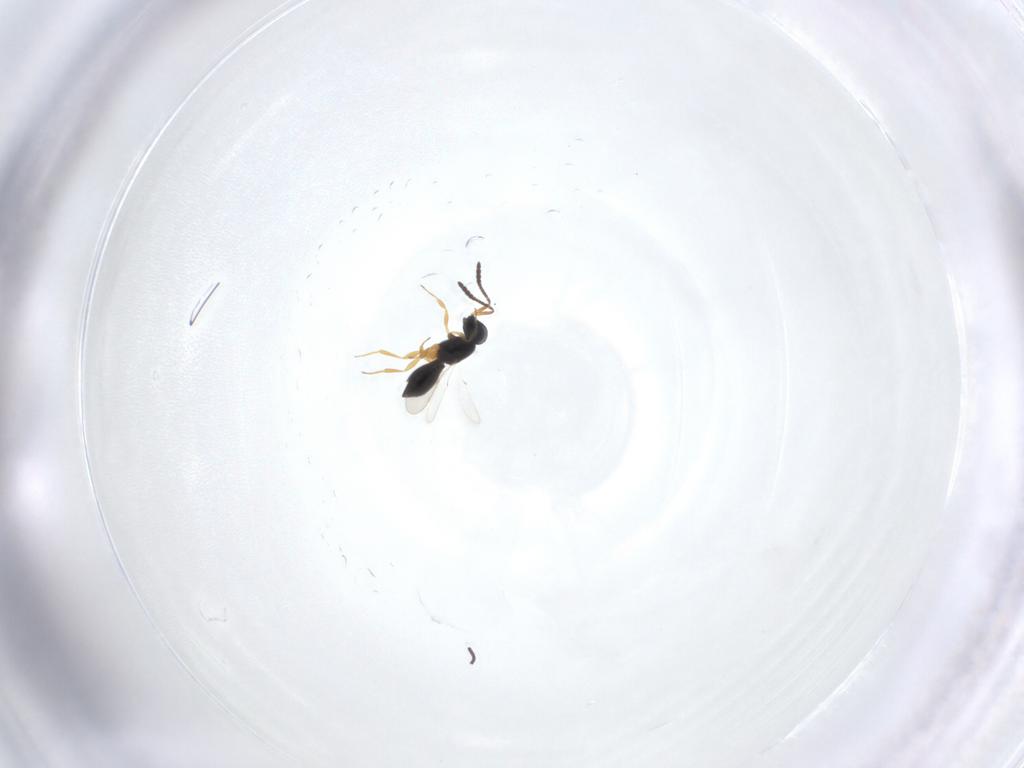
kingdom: Animalia
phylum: Arthropoda
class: Insecta
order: Hymenoptera
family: Scelionidae
